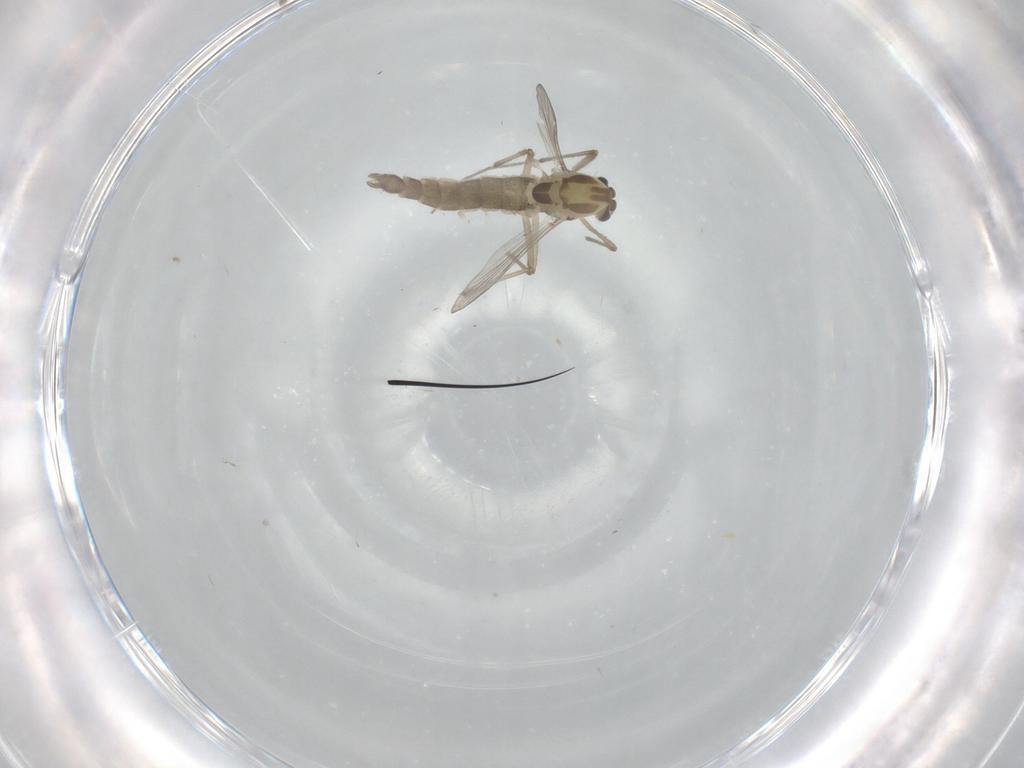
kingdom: Animalia
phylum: Arthropoda
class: Insecta
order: Diptera
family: Chironomidae
